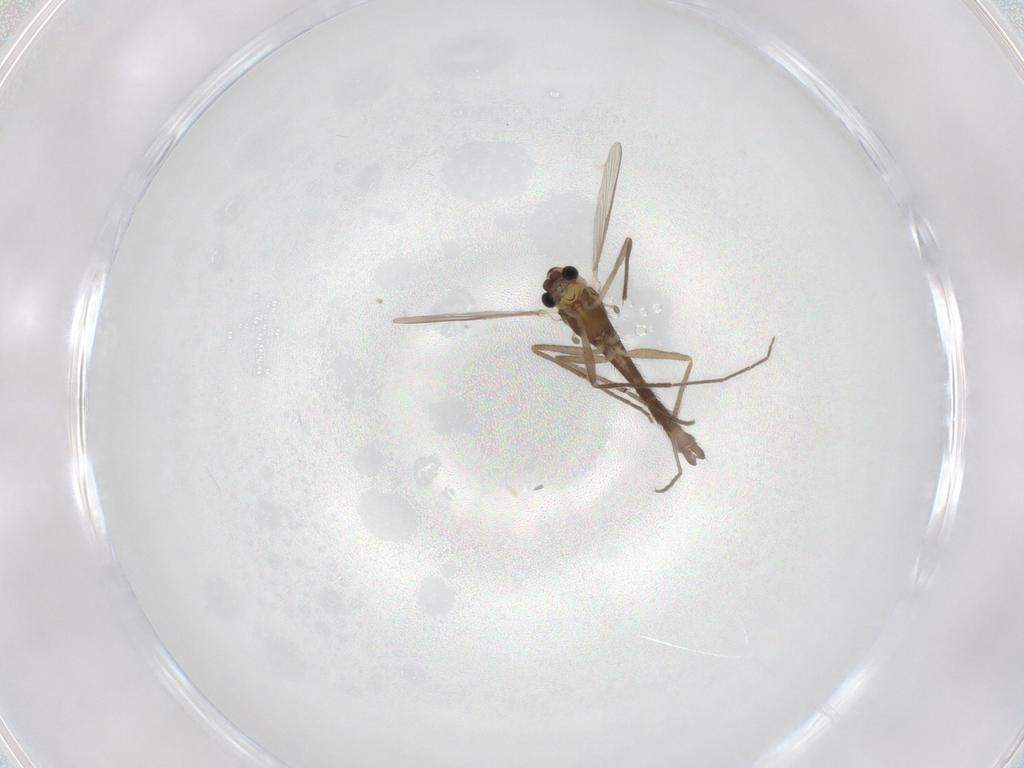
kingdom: Animalia
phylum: Arthropoda
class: Insecta
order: Diptera
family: Chironomidae
